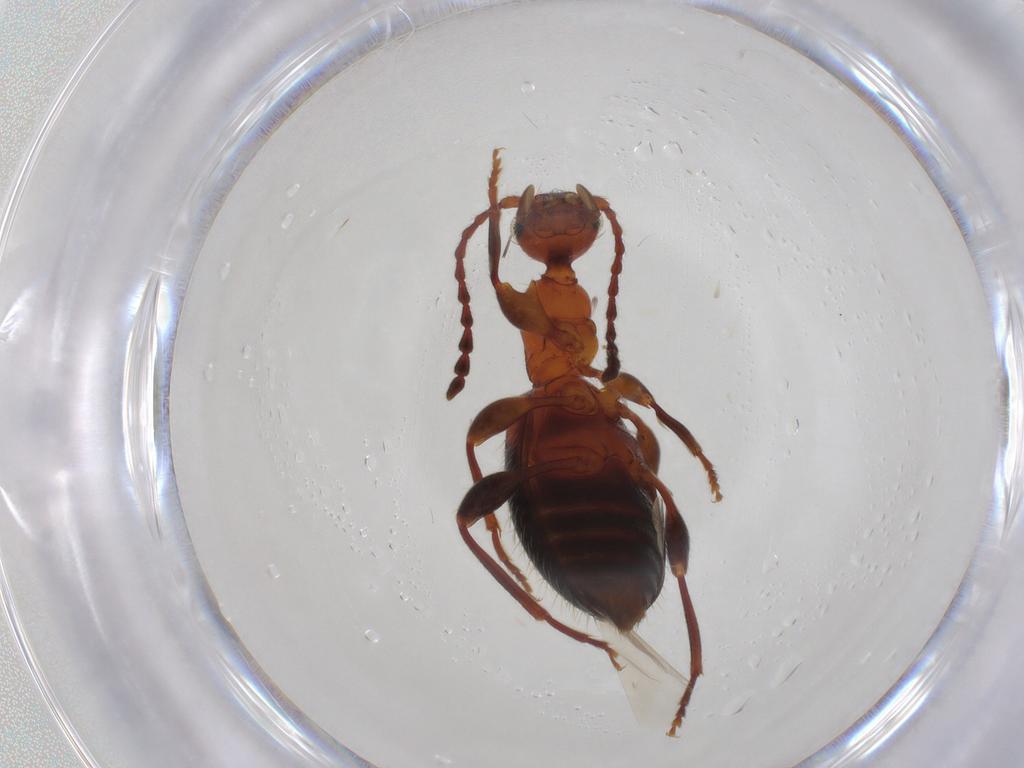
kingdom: Animalia
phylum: Arthropoda
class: Insecta
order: Coleoptera
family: Anthicidae
